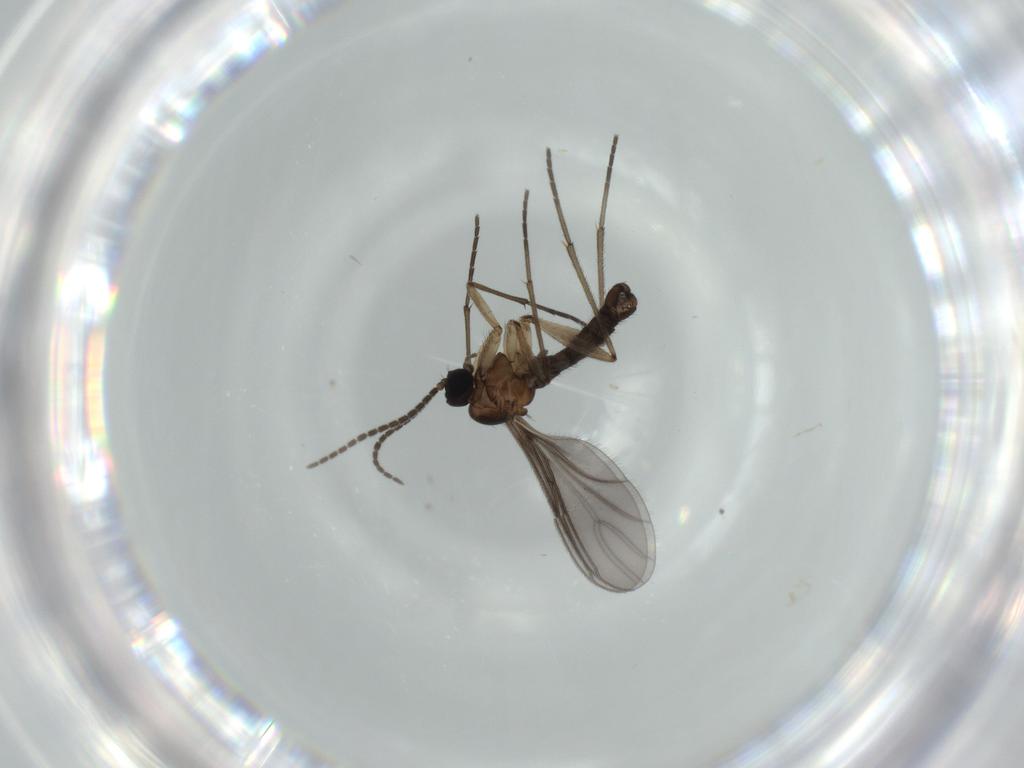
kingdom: Animalia
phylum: Arthropoda
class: Insecta
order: Diptera
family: Sciaridae
